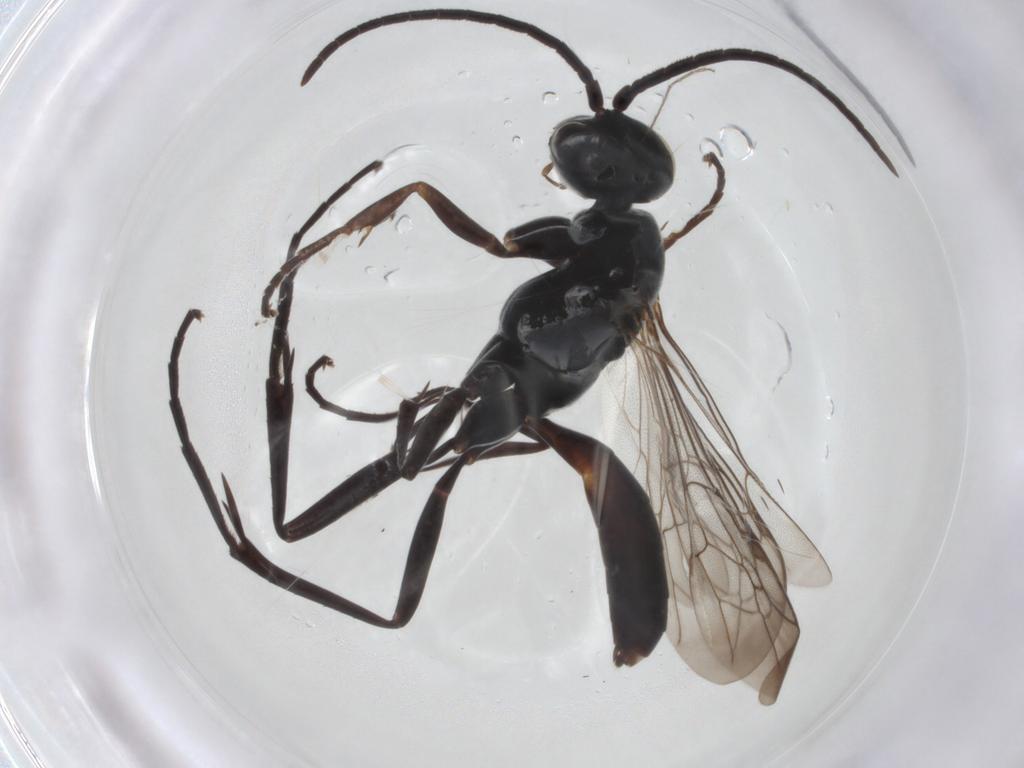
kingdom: Animalia
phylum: Arthropoda
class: Insecta
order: Hymenoptera
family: Pompilidae
